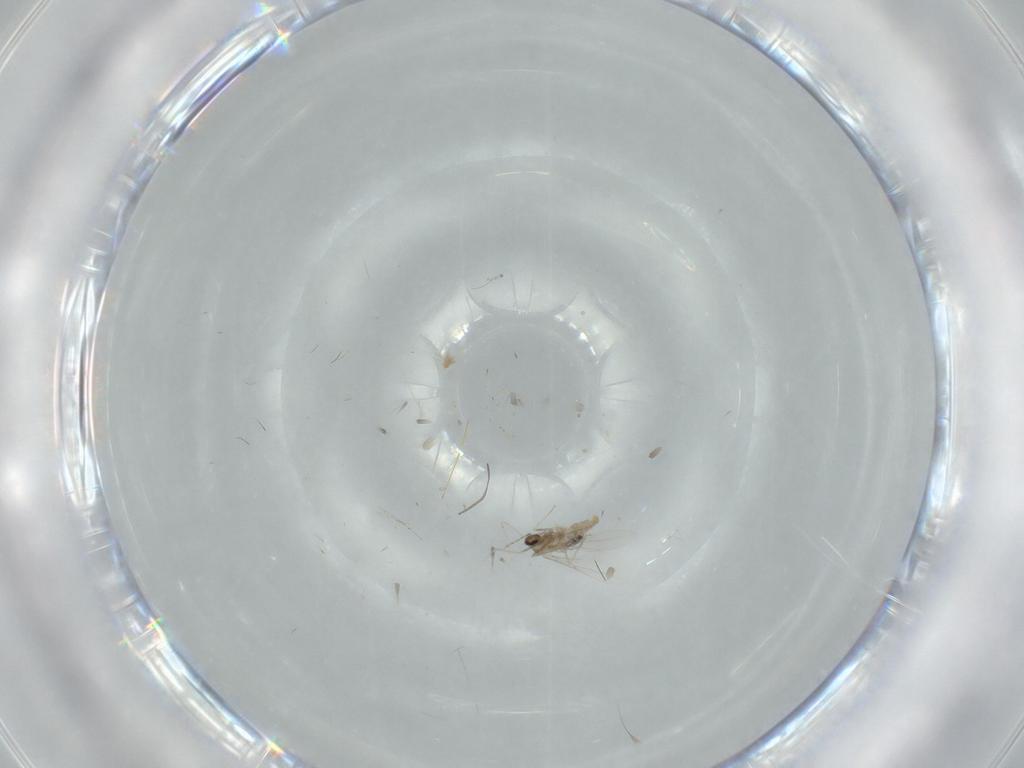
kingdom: Animalia
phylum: Arthropoda
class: Insecta
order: Diptera
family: Cecidomyiidae
